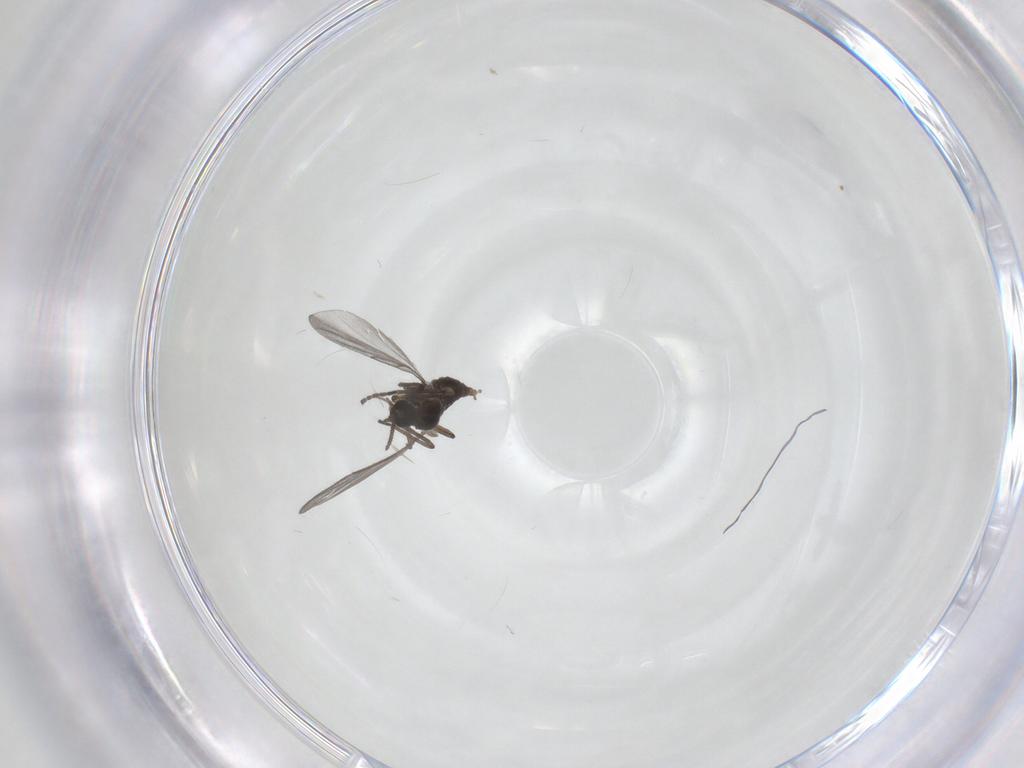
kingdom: Animalia
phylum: Arthropoda
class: Insecta
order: Diptera
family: Cecidomyiidae
